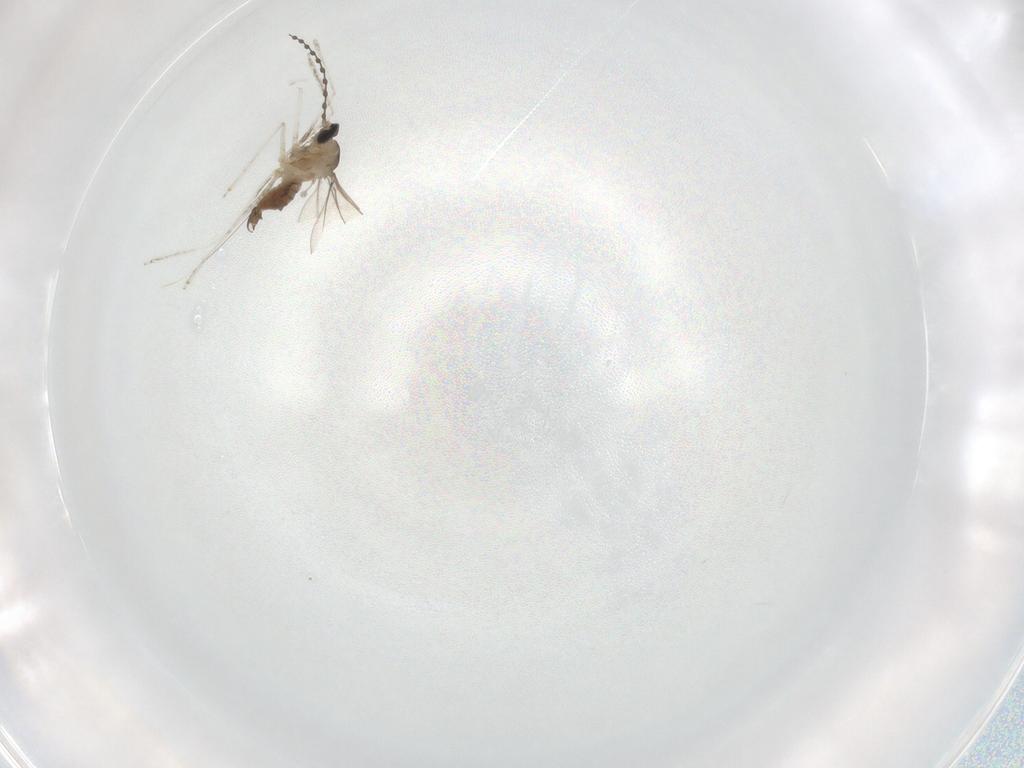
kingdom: Animalia
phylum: Arthropoda
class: Insecta
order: Diptera
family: Cecidomyiidae
